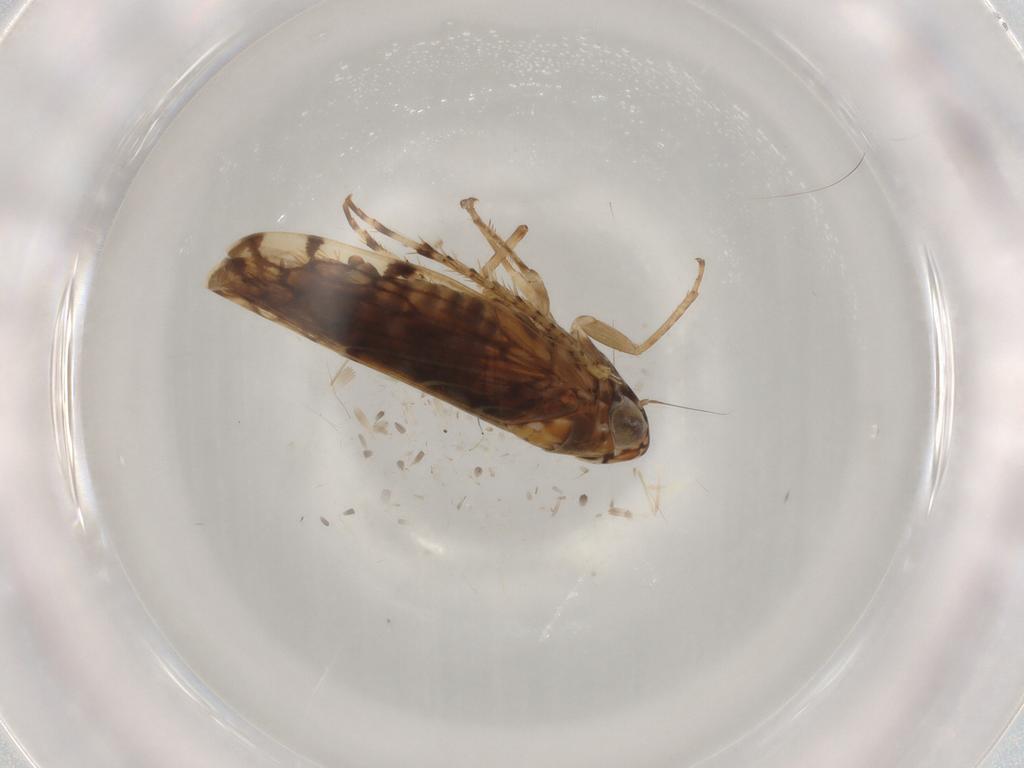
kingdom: Animalia
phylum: Arthropoda
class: Insecta
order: Hemiptera
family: Cicadellidae
